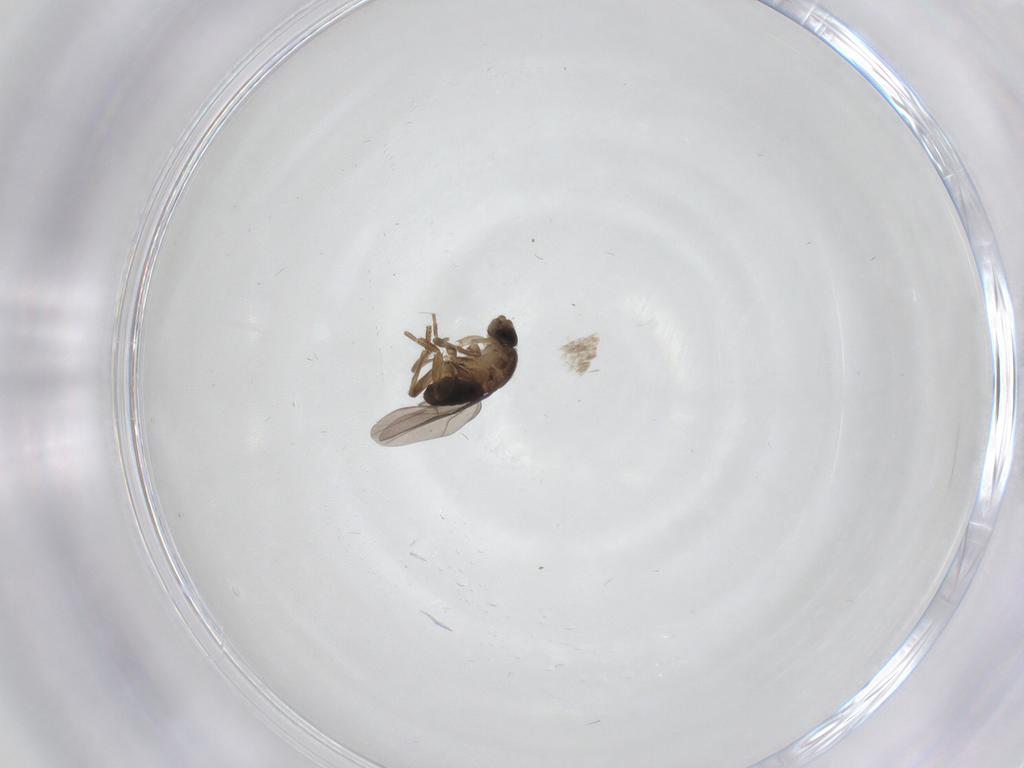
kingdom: Animalia
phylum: Arthropoda
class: Insecta
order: Diptera
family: Phoridae
